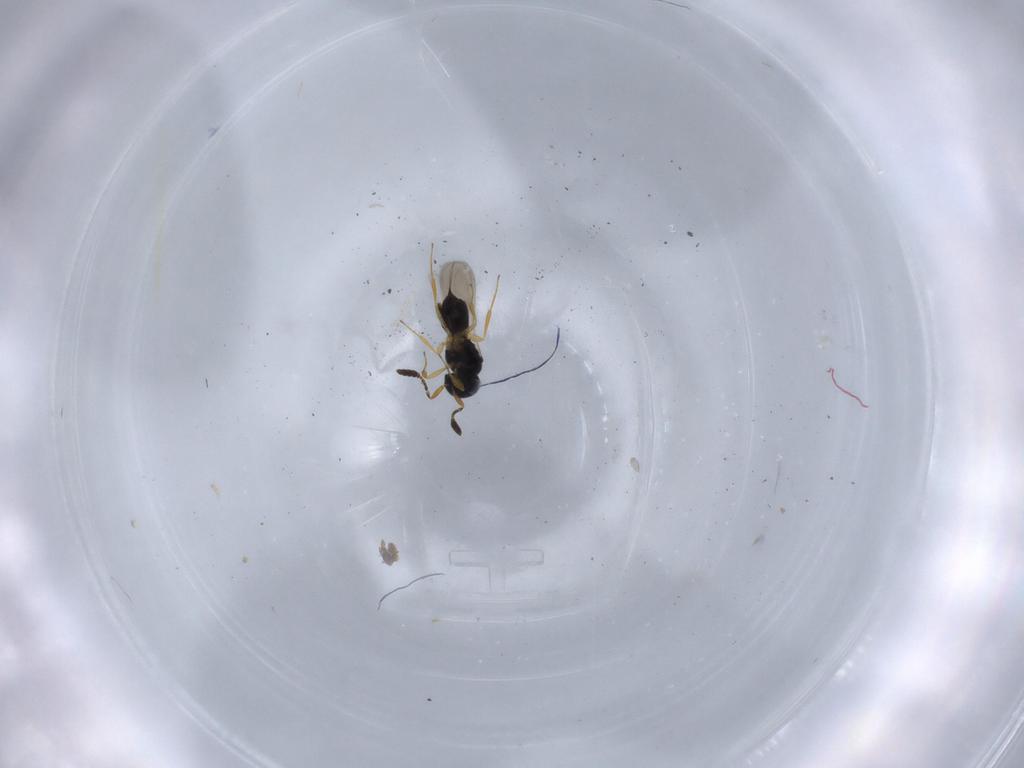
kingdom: Animalia
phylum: Arthropoda
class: Insecta
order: Hymenoptera
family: Scelionidae
